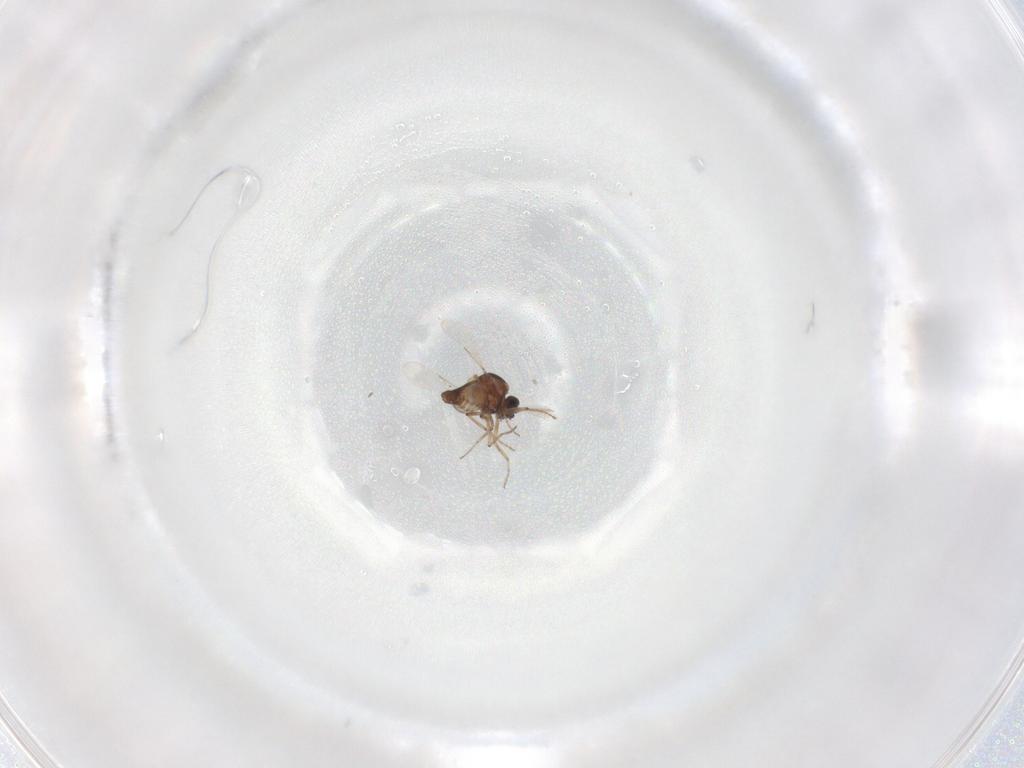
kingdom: Animalia
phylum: Arthropoda
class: Insecta
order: Diptera
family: Ceratopogonidae
